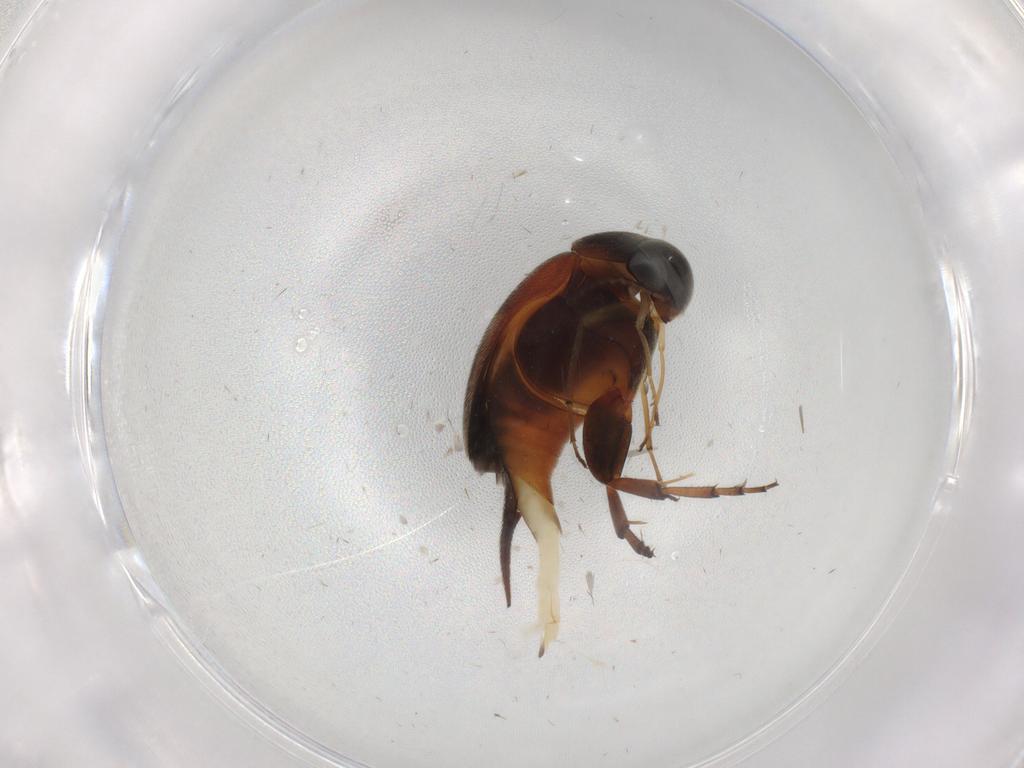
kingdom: Animalia
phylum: Arthropoda
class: Insecta
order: Coleoptera
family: Mordellidae
